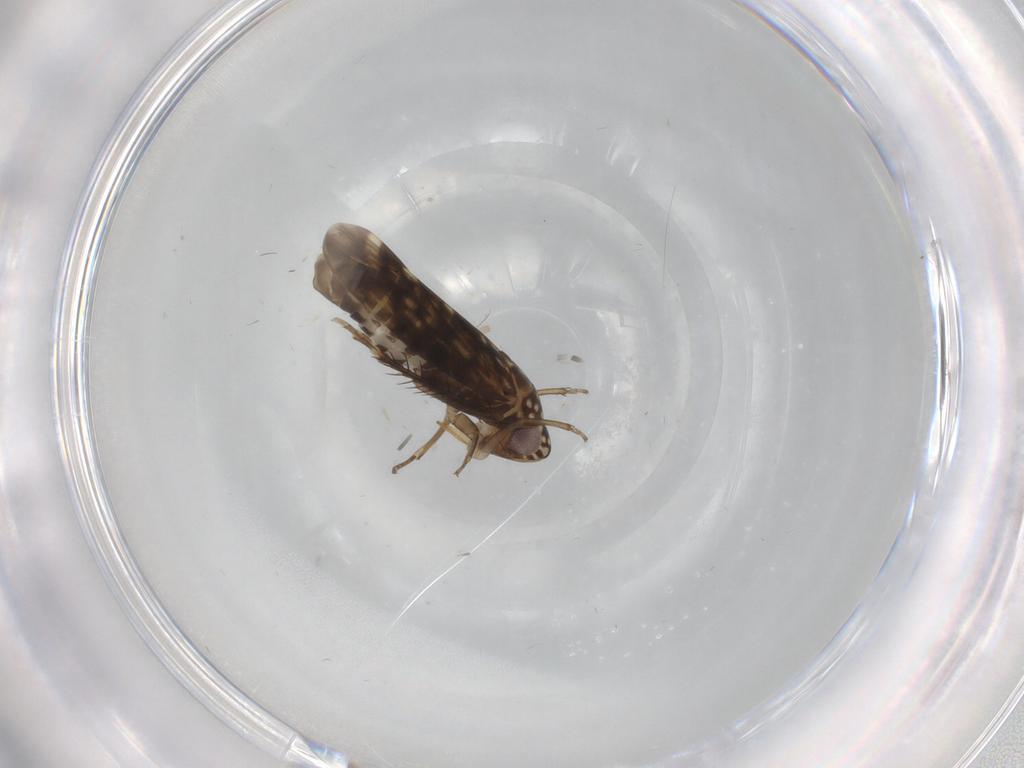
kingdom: Animalia
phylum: Arthropoda
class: Insecta
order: Hemiptera
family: Cicadellidae
